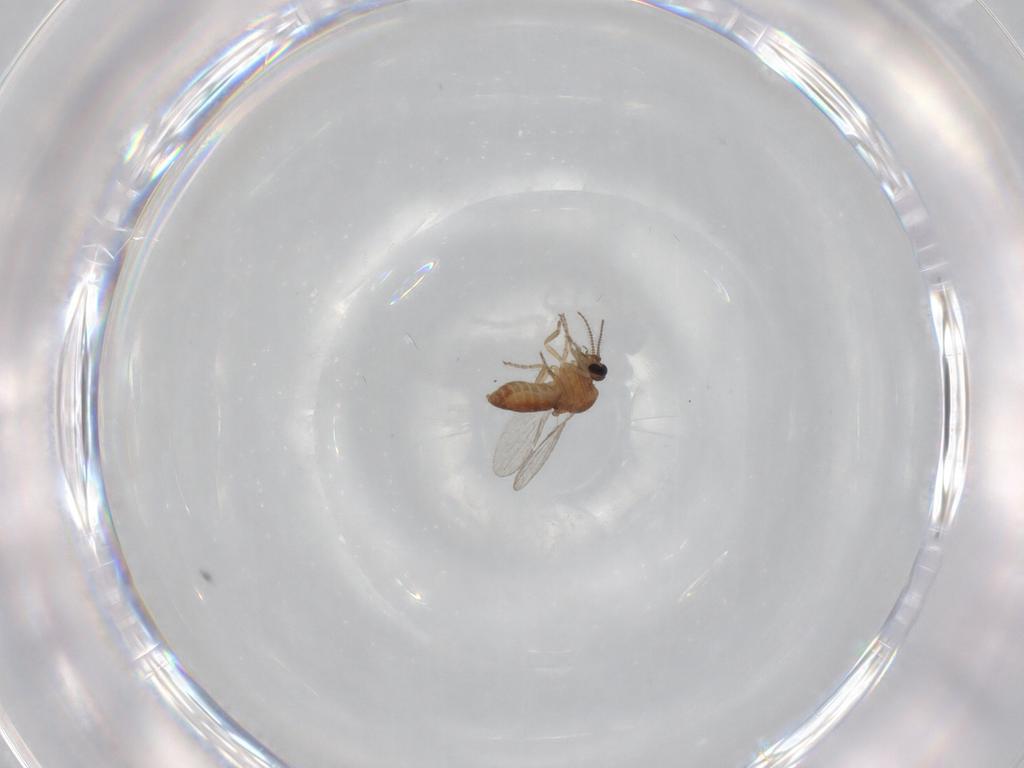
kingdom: Animalia
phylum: Arthropoda
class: Insecta
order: Diptera
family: Ceratopogonidae
